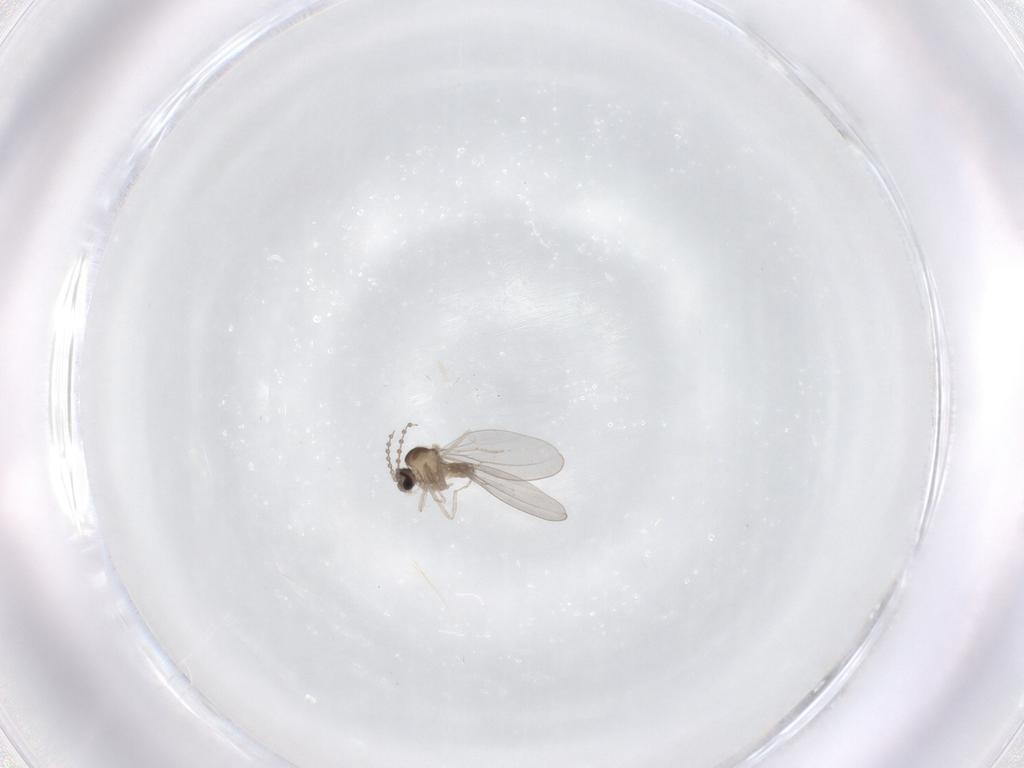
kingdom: Animalia
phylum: Arthropoda
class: Insecta
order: Diptera
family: Cecidomyiidae
